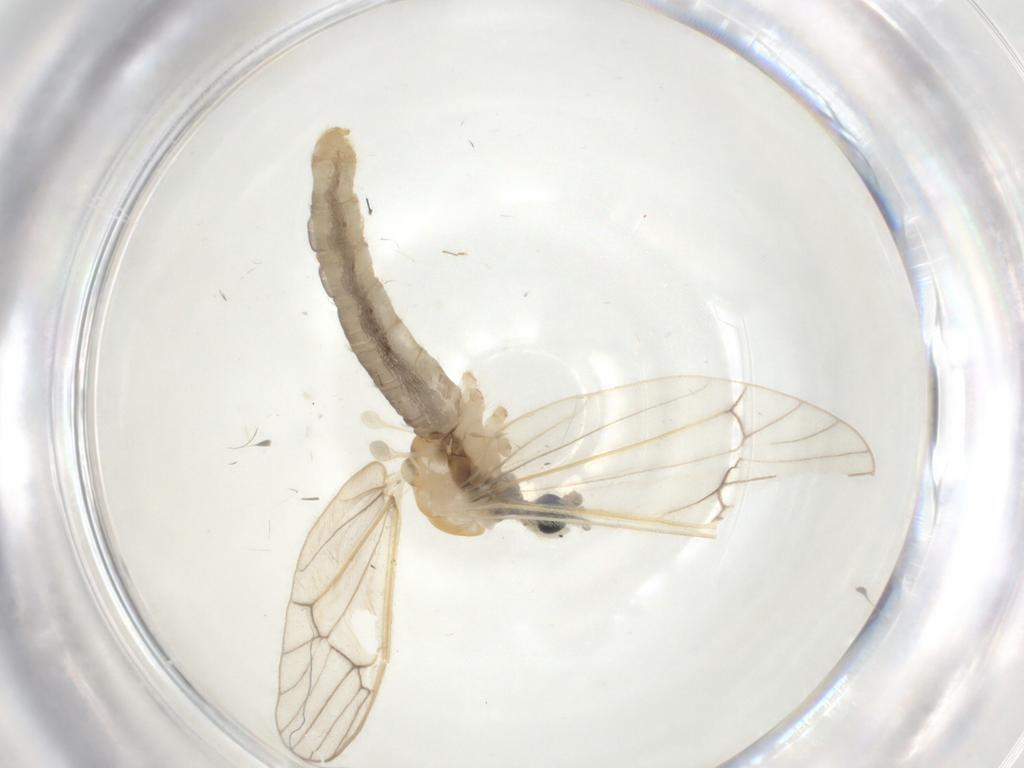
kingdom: Animalia
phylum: Arthropoda
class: Insecta
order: Diptera
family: Limoniidae
